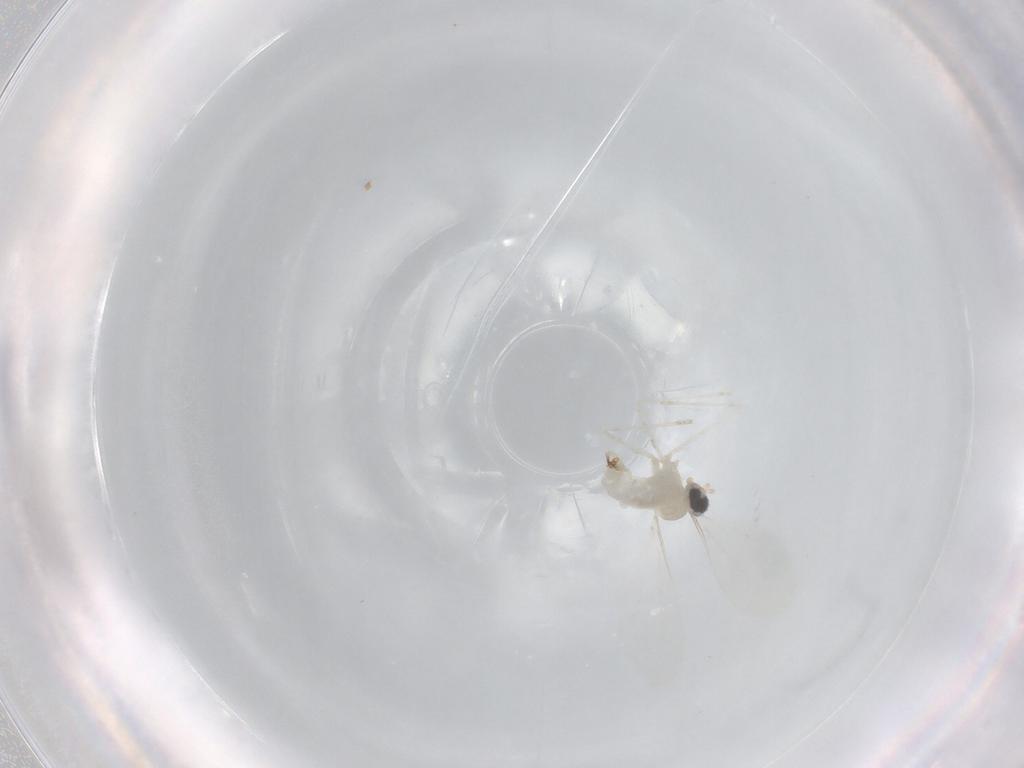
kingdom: Animalia
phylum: Arthropoda
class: Insecta
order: Diptera
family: Cecidomyiidae
